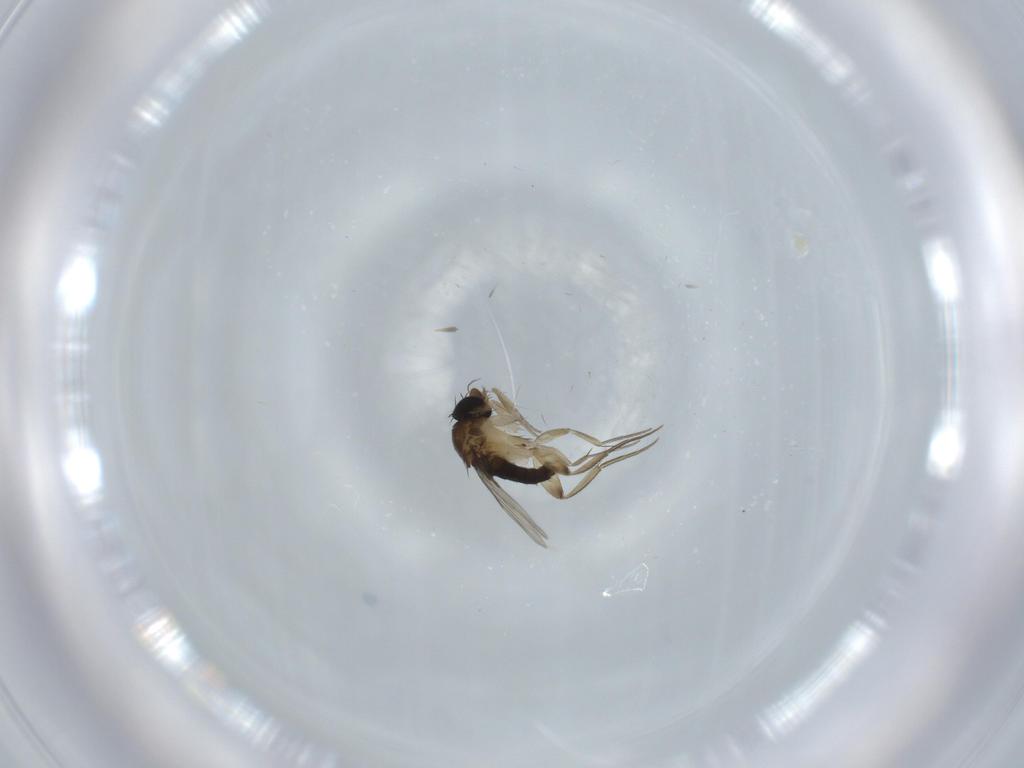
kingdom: Animalia
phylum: Arthropoda
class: Insecta
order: Diptera
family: Phoridae
